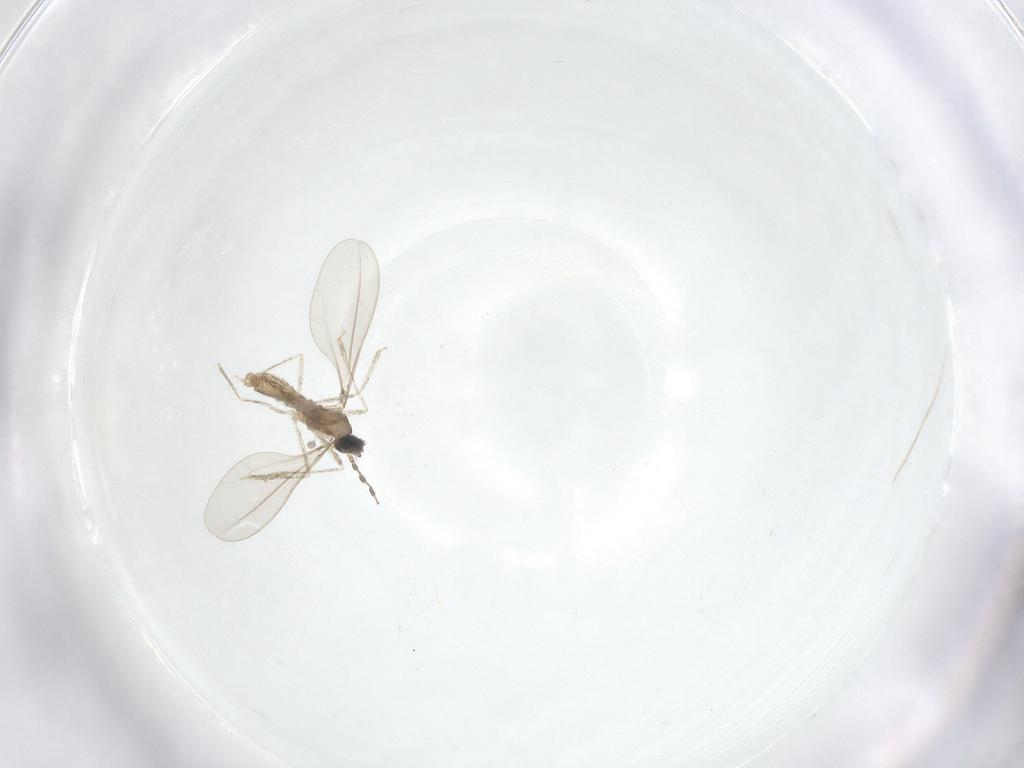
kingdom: Animalia
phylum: Arthropoda
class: Insecta
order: Diptera
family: Cecidomyiidae
